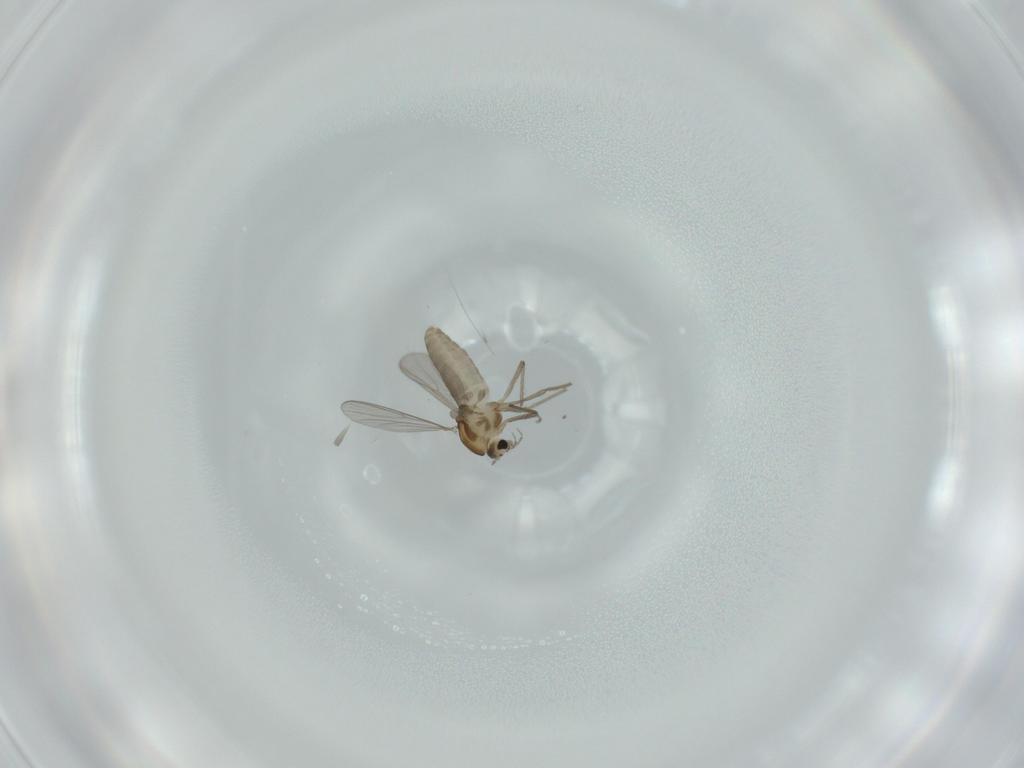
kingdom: Animalia
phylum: Arthropoda
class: Insecta
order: Diptera
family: Chironomidae
